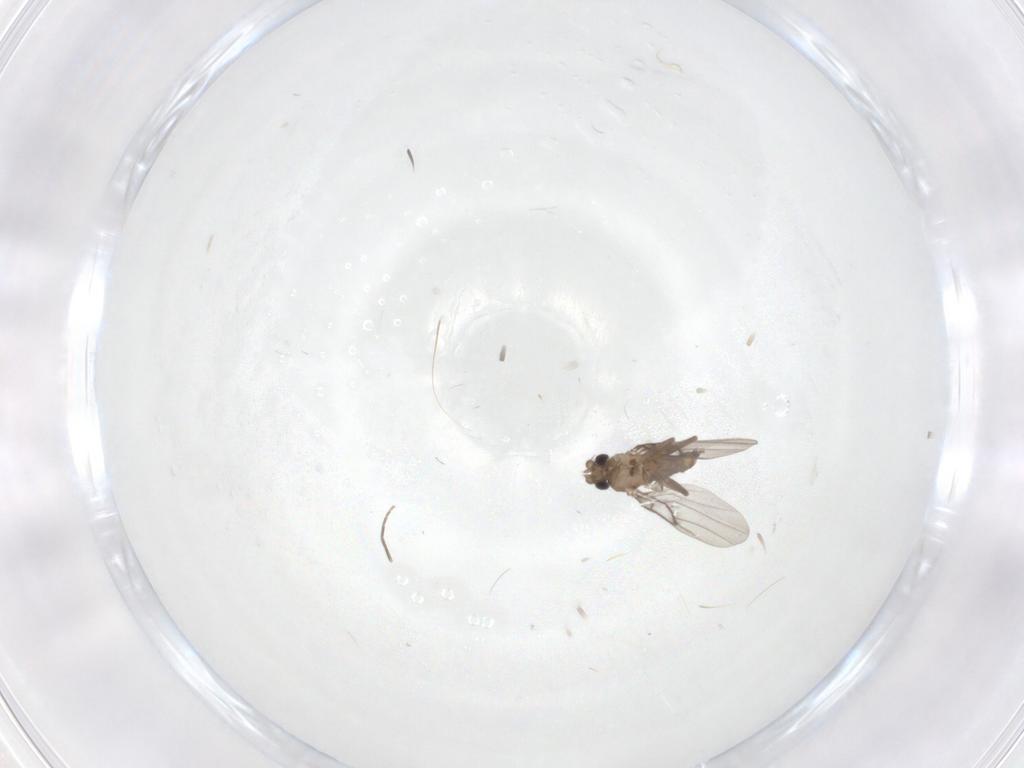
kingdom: Animalia
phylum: Arthropoda
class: Insecta
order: Diptera
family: Phoridae
